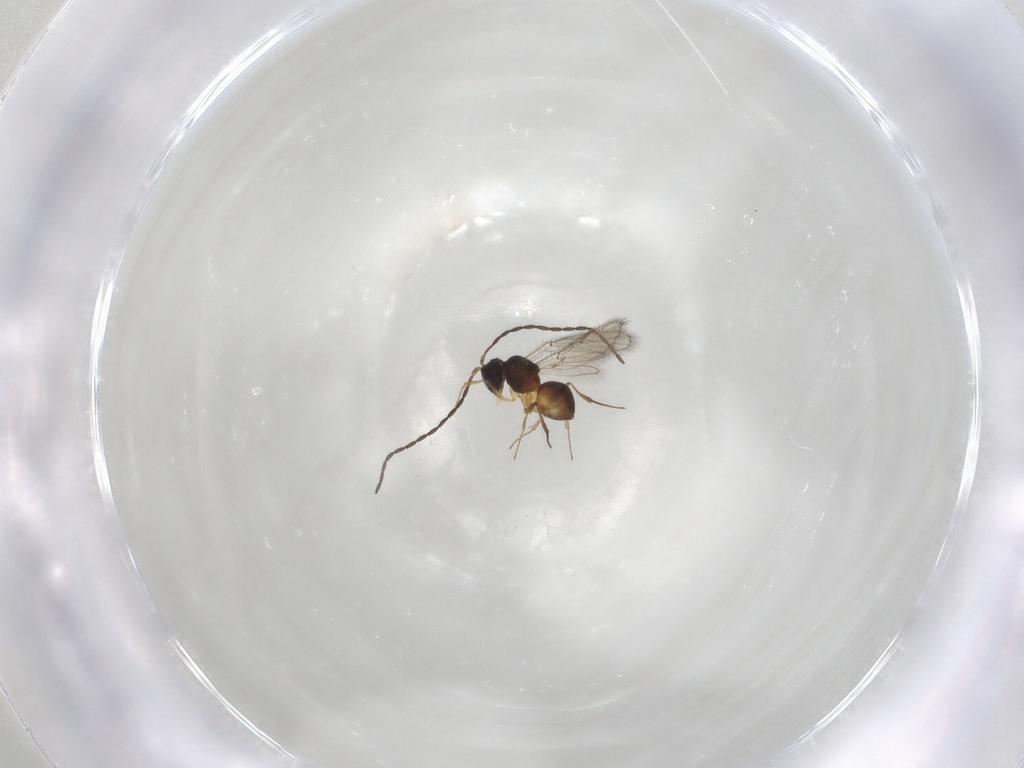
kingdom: Animalia
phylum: Arthropoda
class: Insecta
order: Hymenoptera
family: Figitidae
